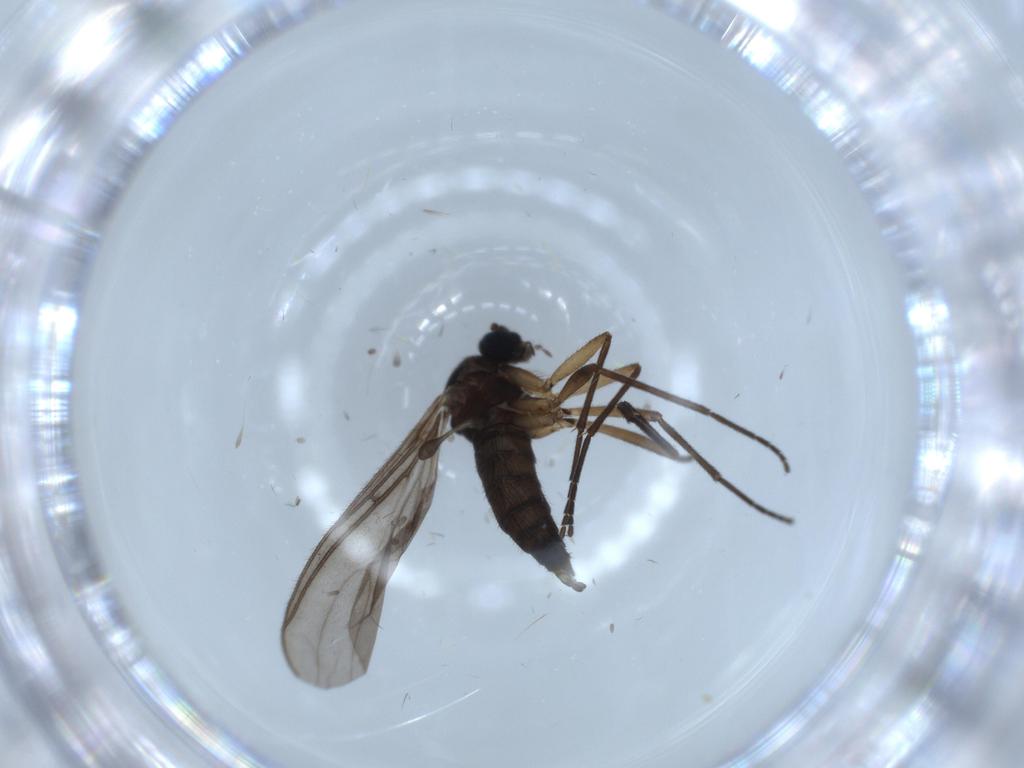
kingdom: Animalia
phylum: Arthropoda
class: Insecta
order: Diptera
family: Sciaridae
